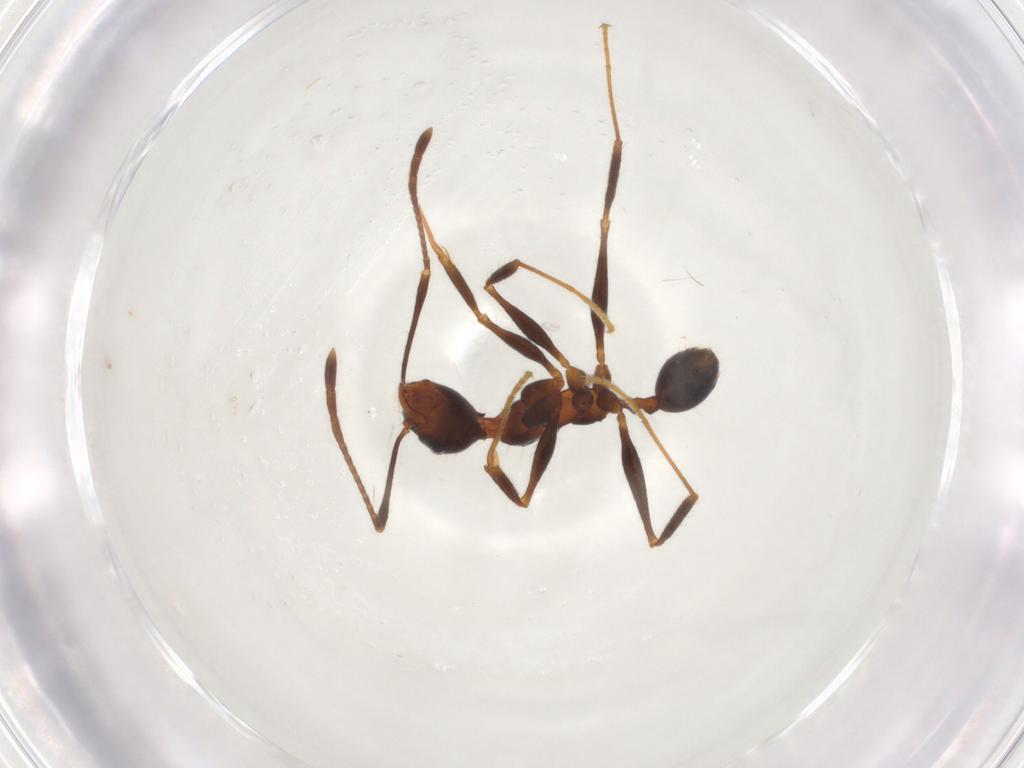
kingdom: Animalia
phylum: Arthropoda
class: Insecta
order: Hymenoptera
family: Formicidae
